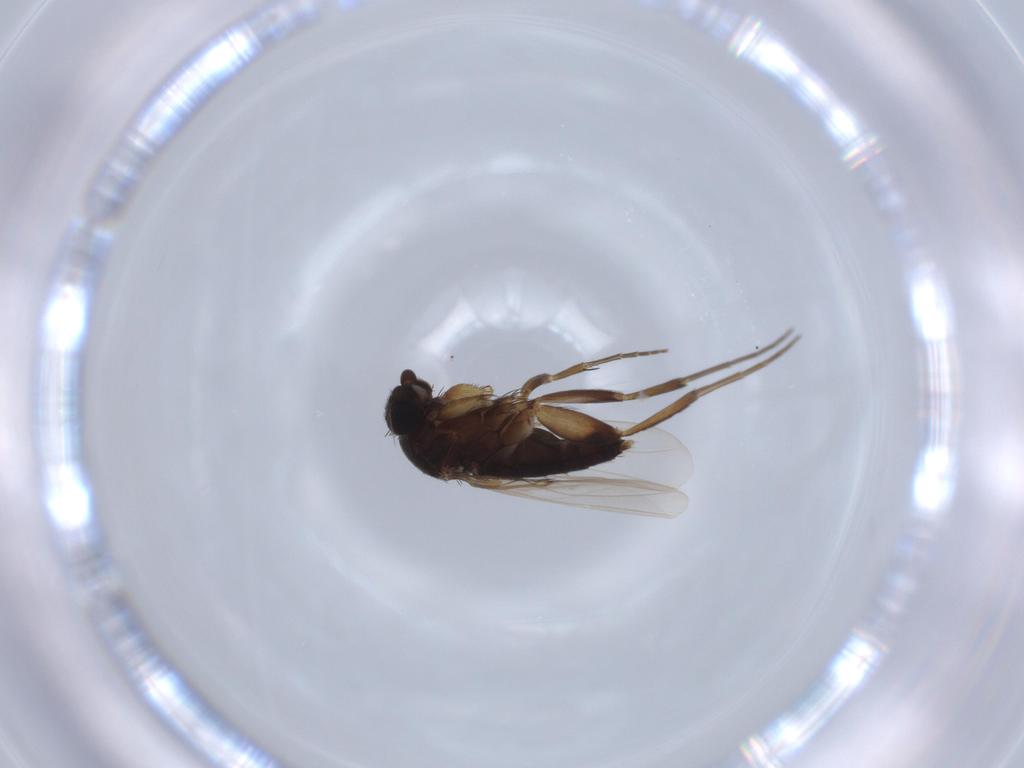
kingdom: Animalia
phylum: Arthropoda
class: Insecta
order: Diptera
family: Phoridae
